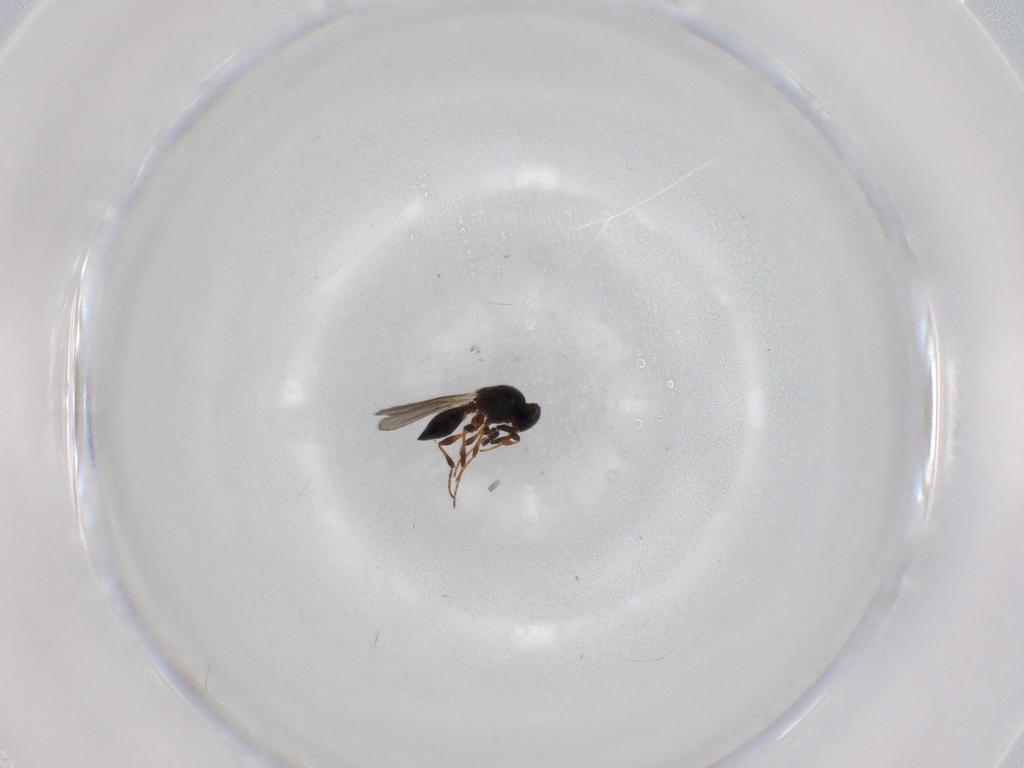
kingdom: Animalia
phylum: Arthropoda
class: Insecta
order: Hymenoptera
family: Platygastridae
